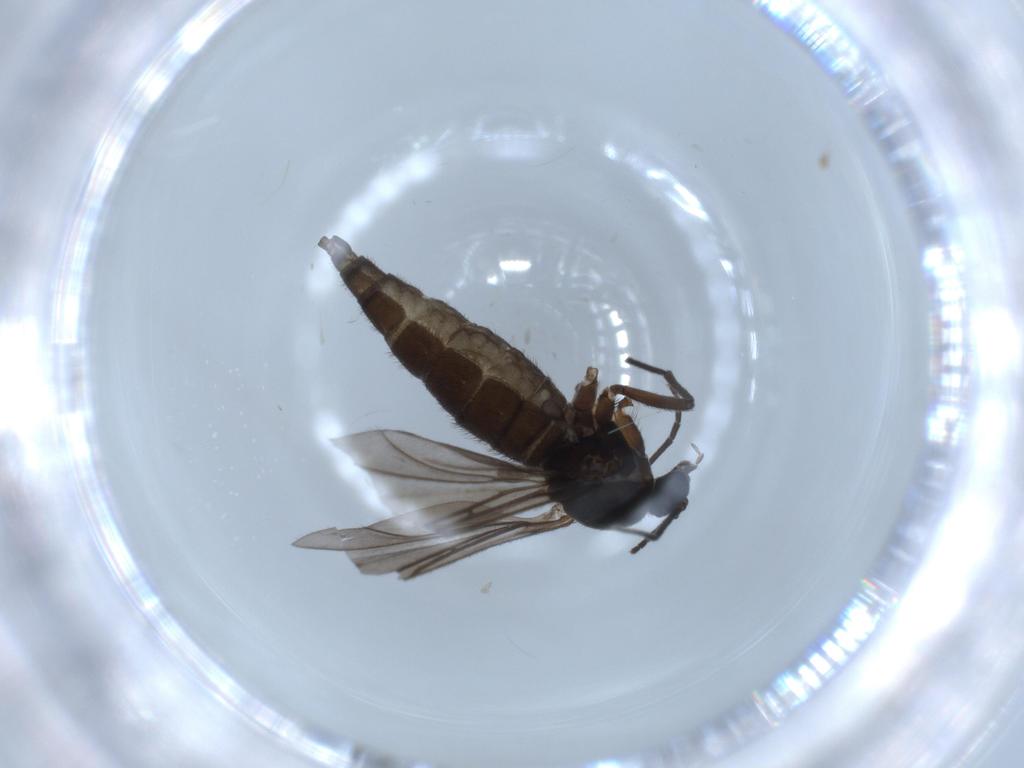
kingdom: Animalia
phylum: Arthropoda
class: Insecta
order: Diptera
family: Sciaridae
